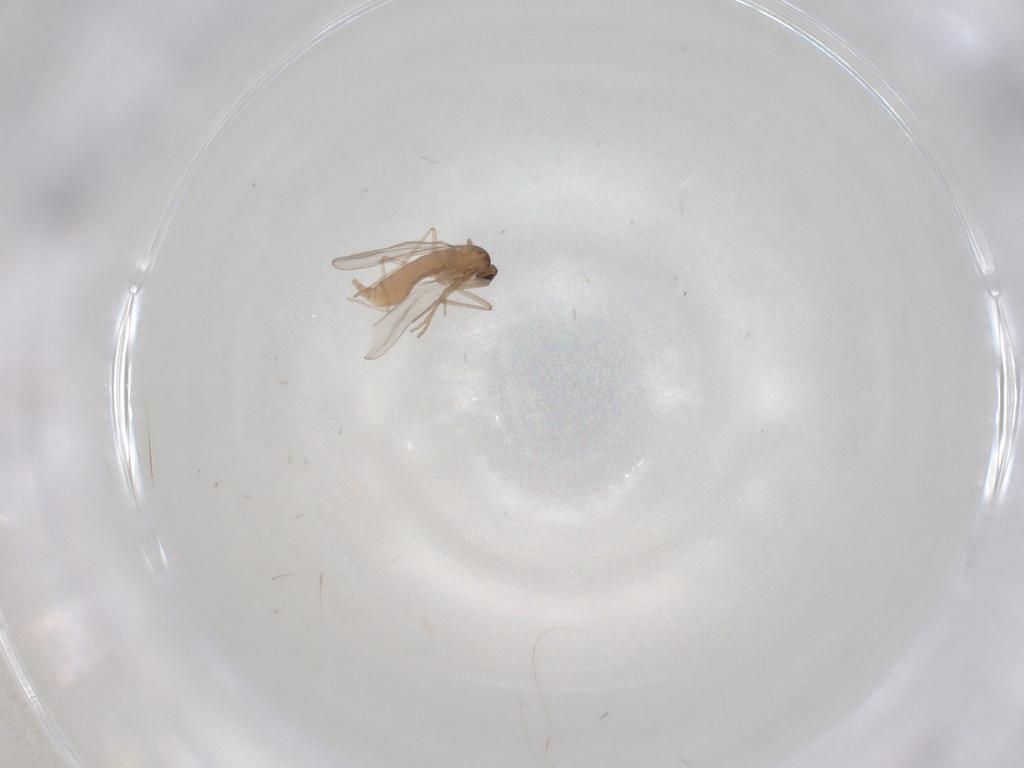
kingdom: Animalia
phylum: Arthropoda
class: Insecta
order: Diptera
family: Cecidomyiidae
